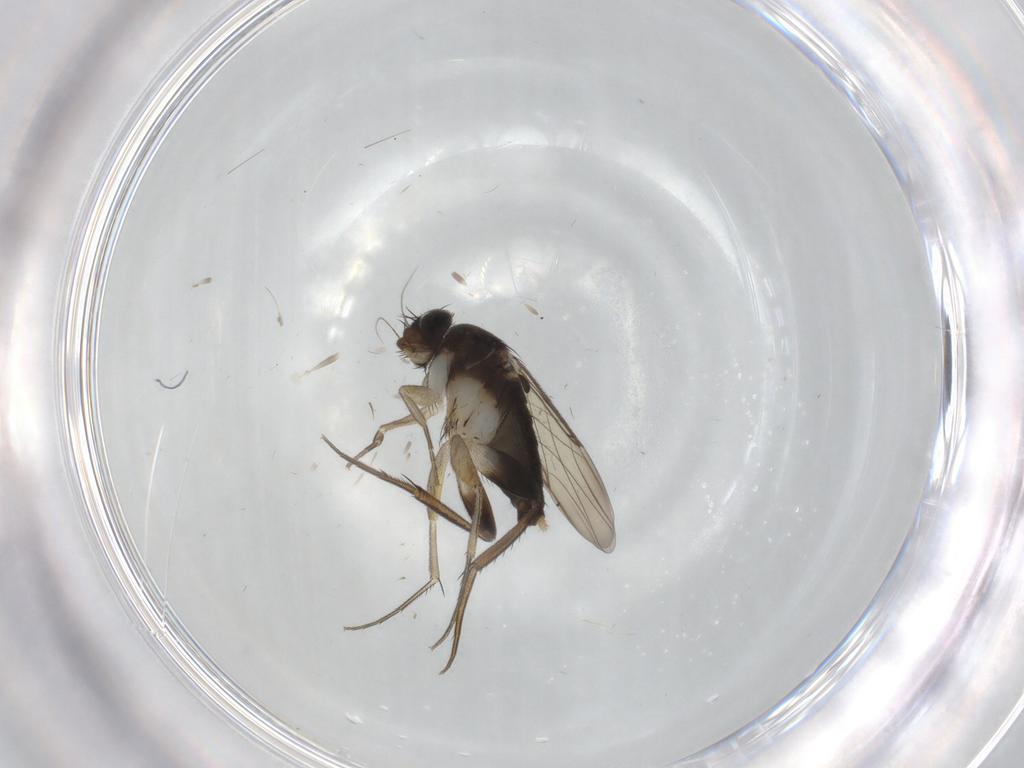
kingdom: Animalia
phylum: Arthropoda
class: Insecta
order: Diptera
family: Phoridae
